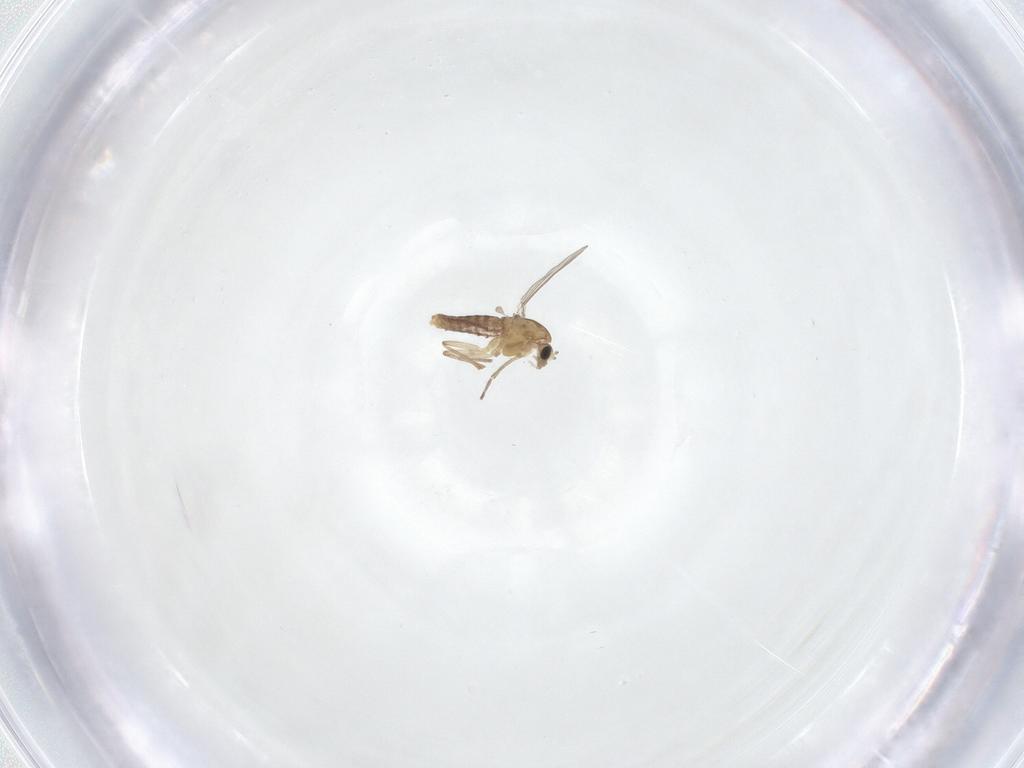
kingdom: Animalia
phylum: Arthropoda
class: Insecta
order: Diptera
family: Chironomidae
